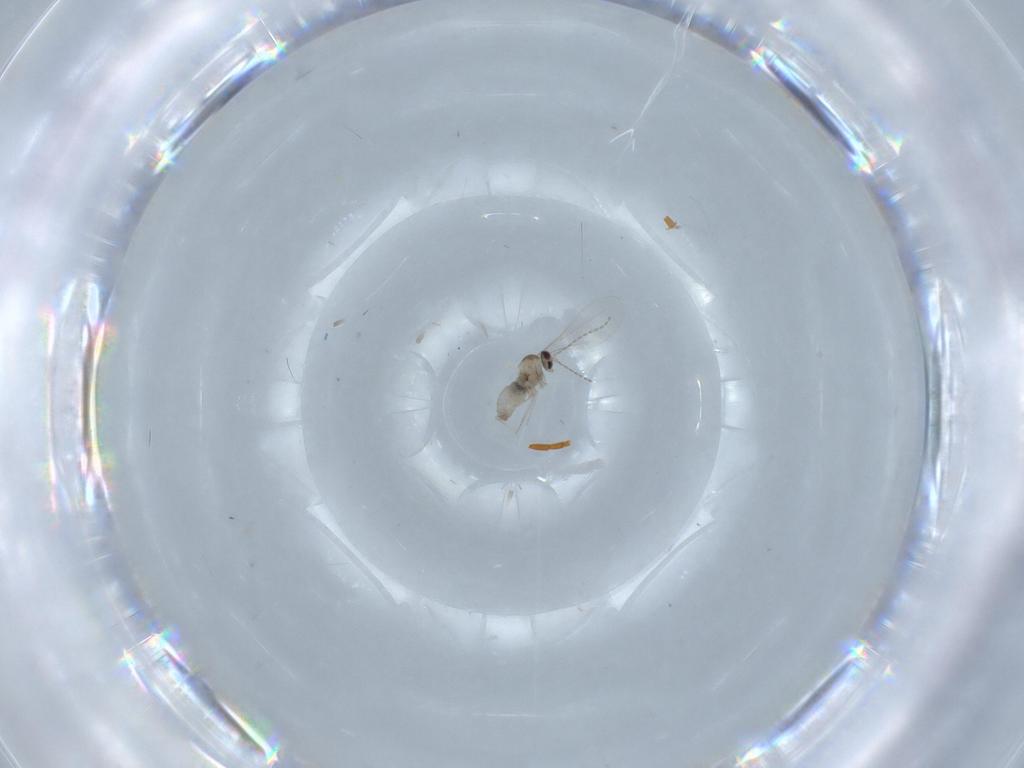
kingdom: Animalia
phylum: Arthropoda
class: Insecta
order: Diptera
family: Cecidomyiidae
